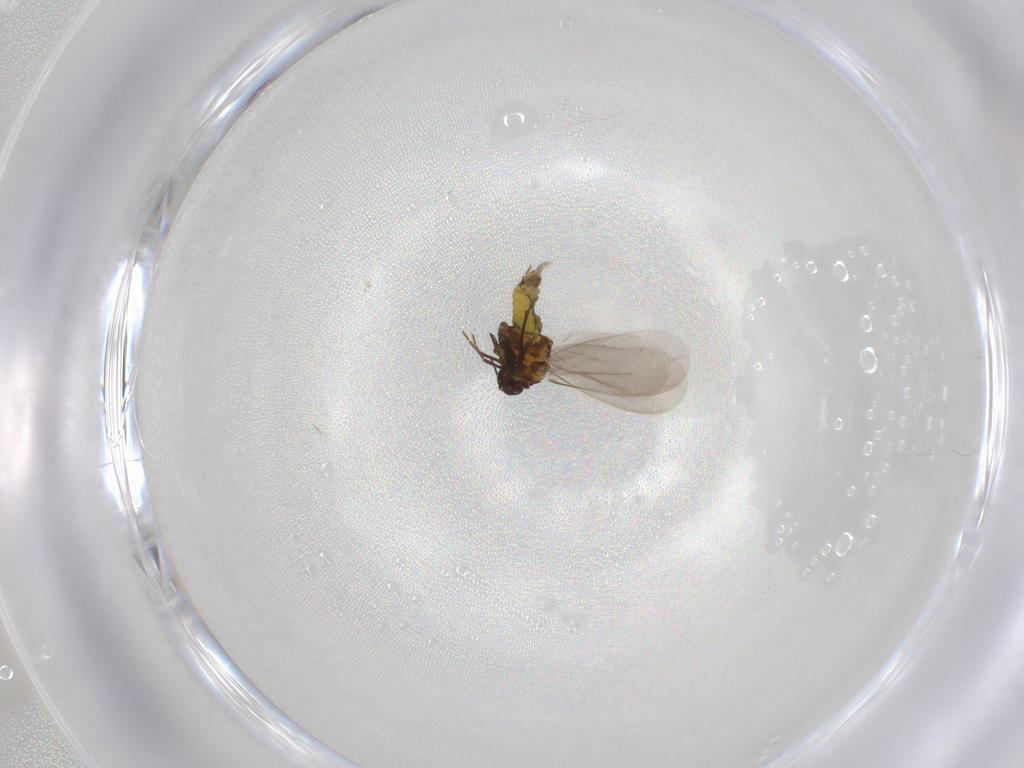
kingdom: Animalia
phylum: Arthropoda
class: Insecta
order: Hemiptera
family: Aleyrodidae
